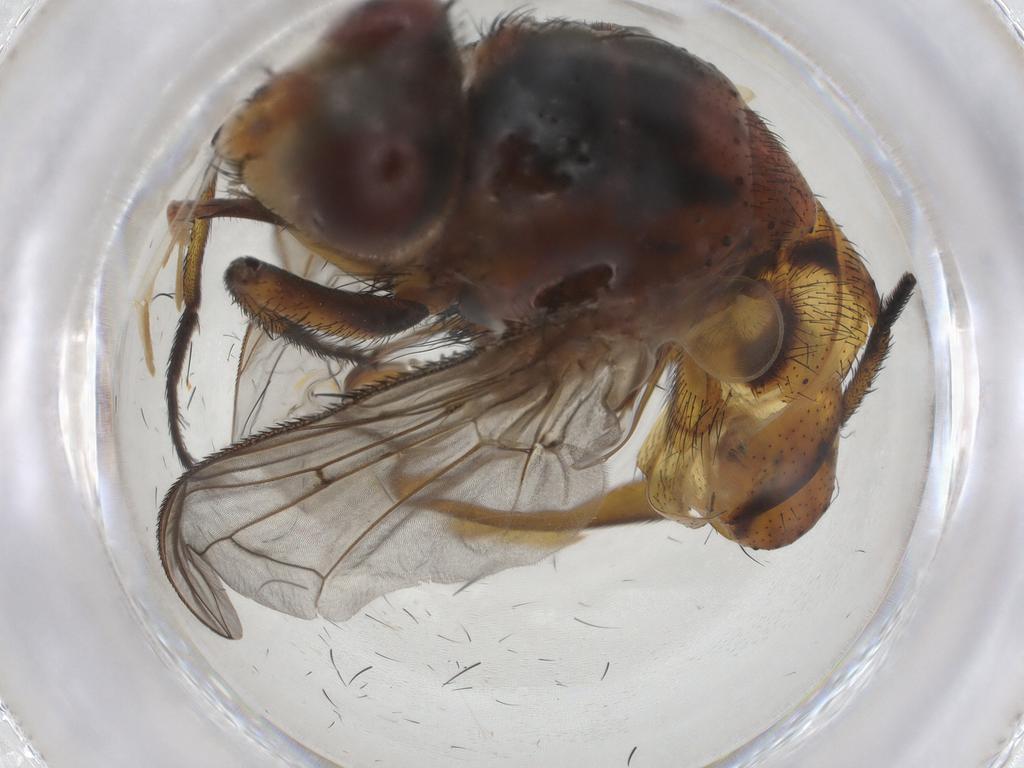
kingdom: Animalia
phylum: Arthropoda
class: Insecta
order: Diptera
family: Tachinidae
